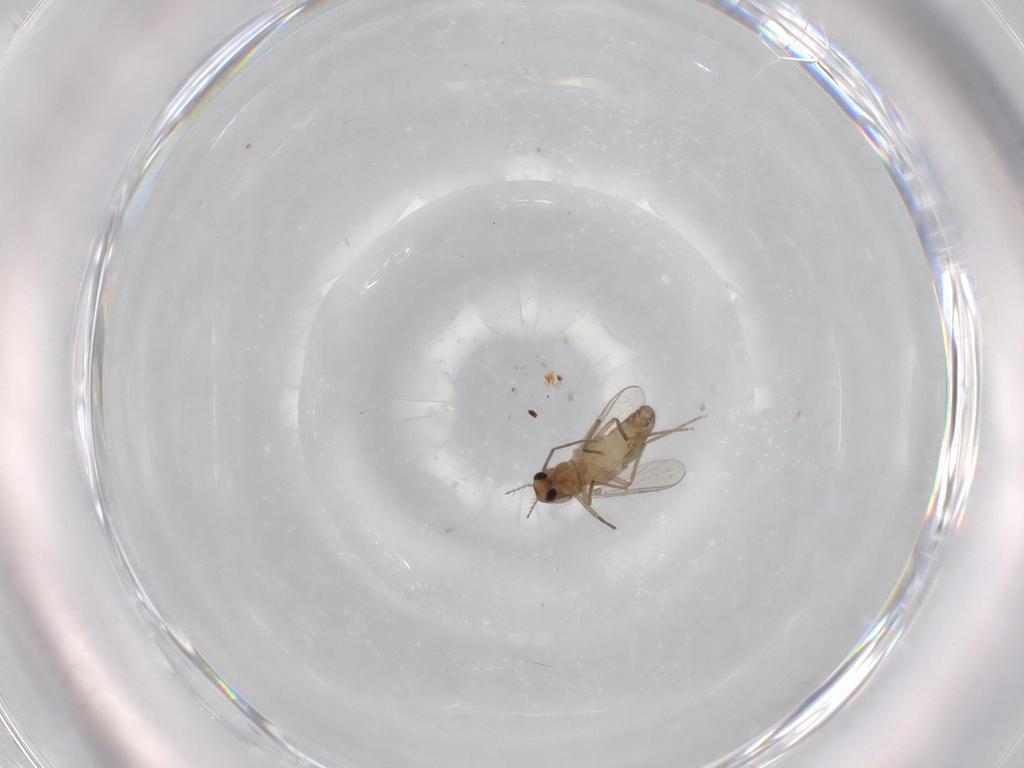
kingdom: Animalia
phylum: Arthropoda
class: Insecta
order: Diptera
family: Chironomidae
